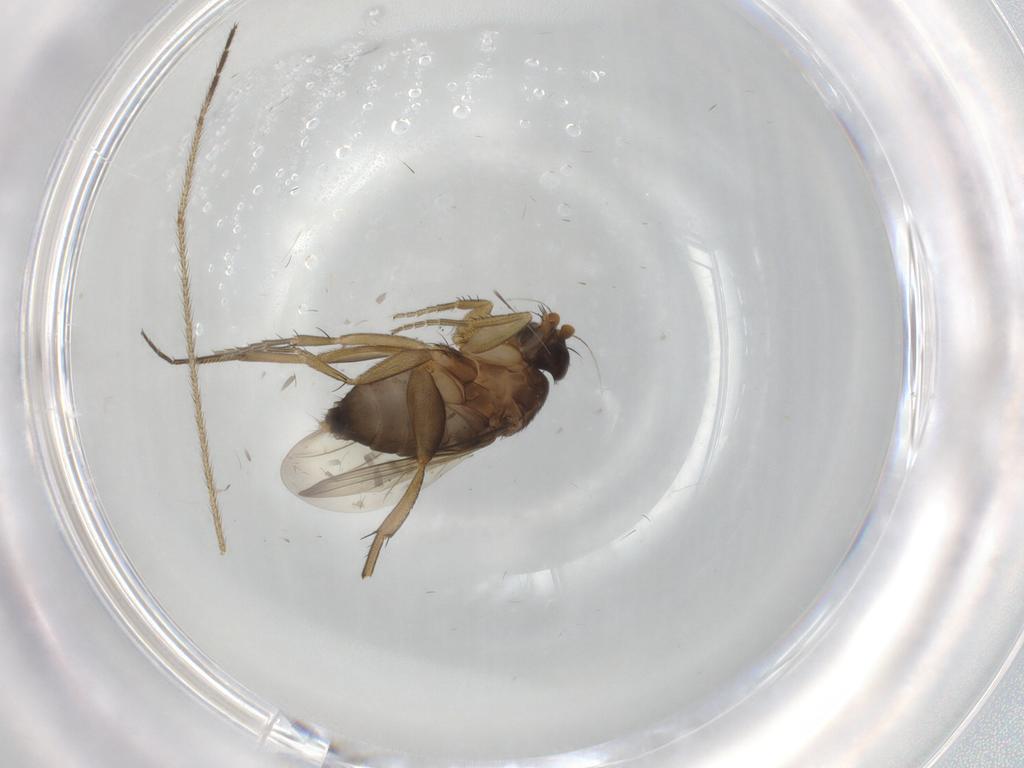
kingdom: Animalia
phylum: Arthropoda
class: Insecta
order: Diptera
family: Phoridae
